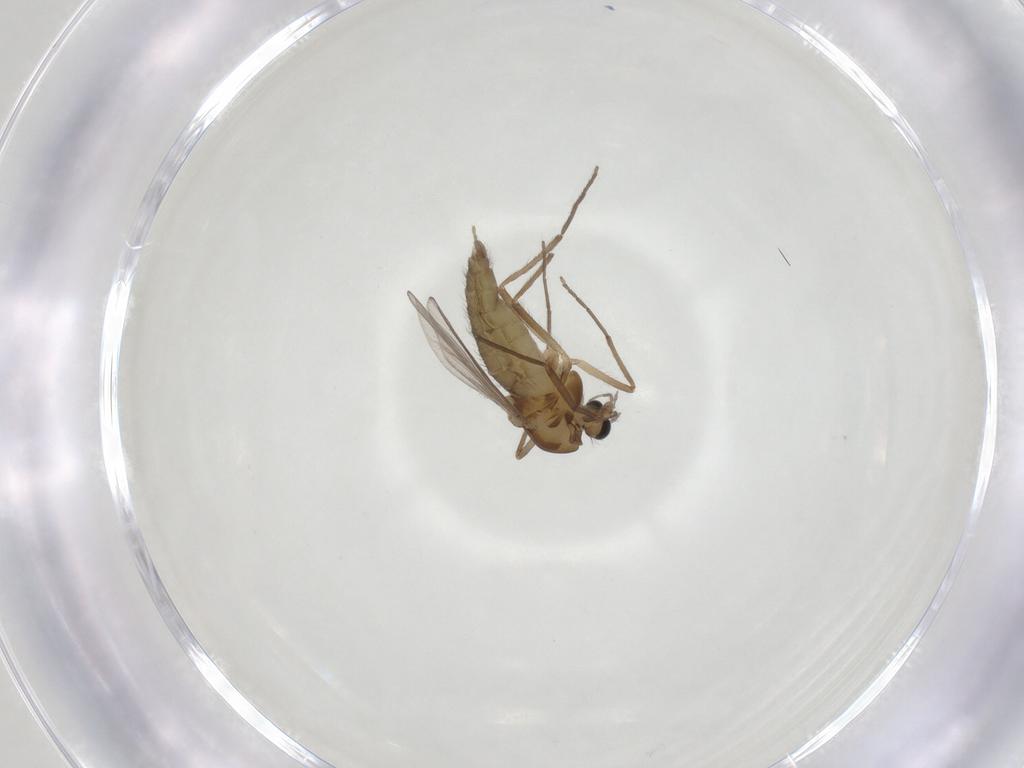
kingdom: Animalia
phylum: Arthropoda
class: Insecta
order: Diptera
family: Chironomidae
